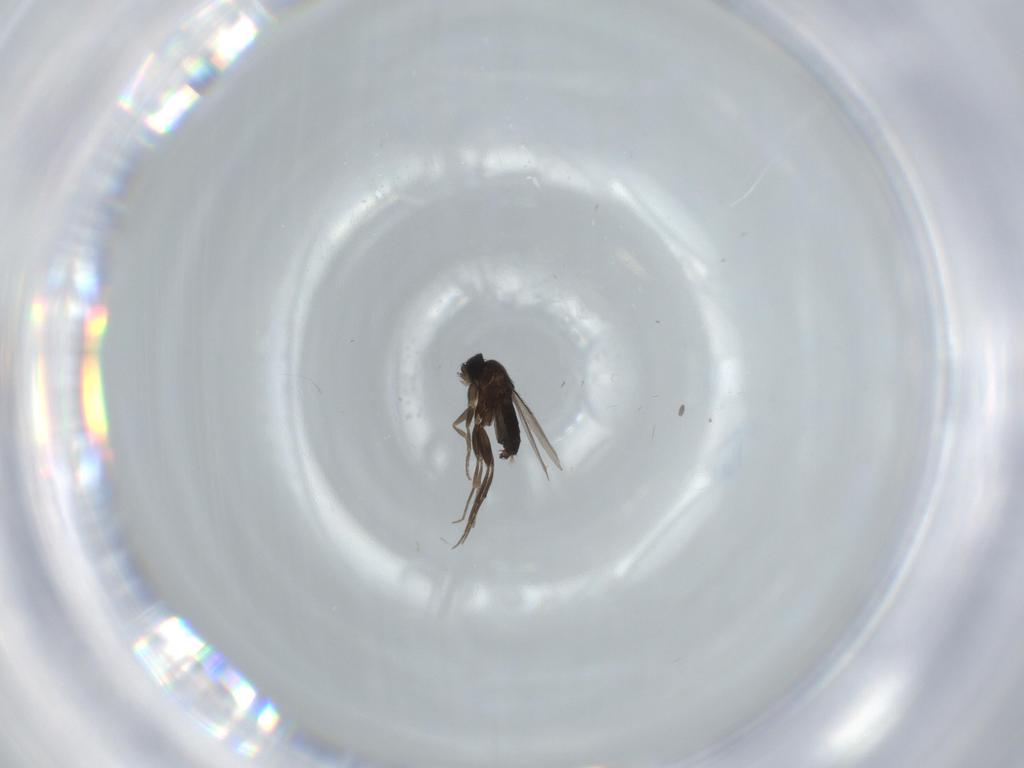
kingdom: Animalia
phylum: Arthropoda
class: Insecta
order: Diptera
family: Phoridae
